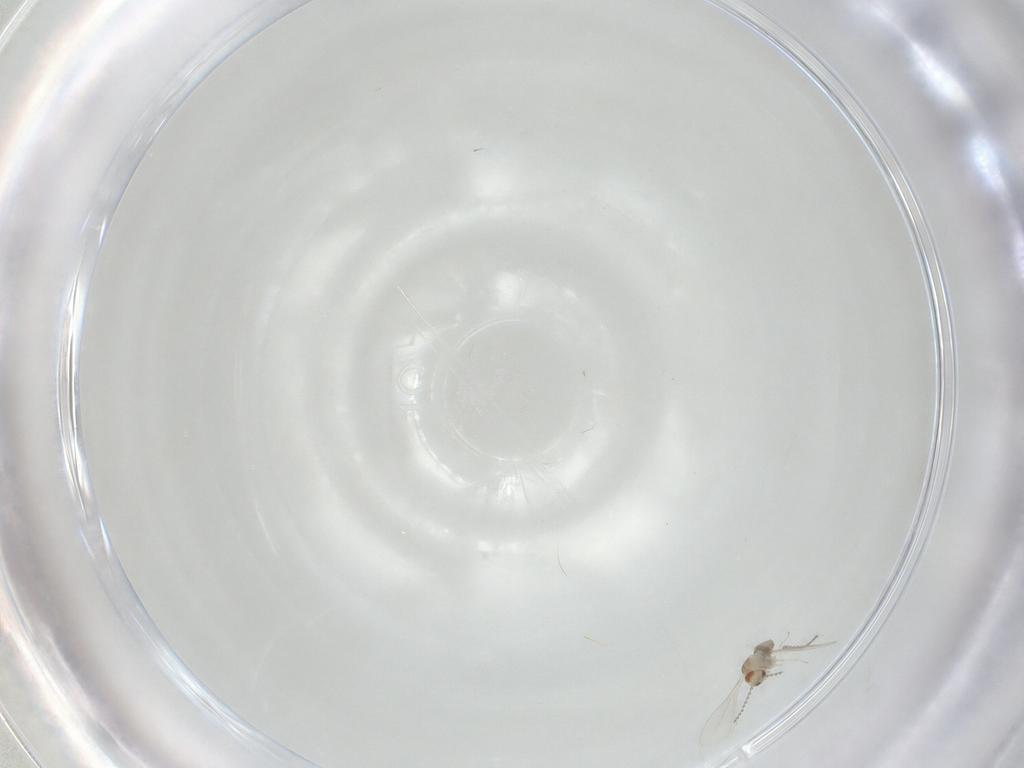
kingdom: Animalia
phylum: Arthropoda
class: Insecta
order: Diptera
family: Cecidomyiidae
